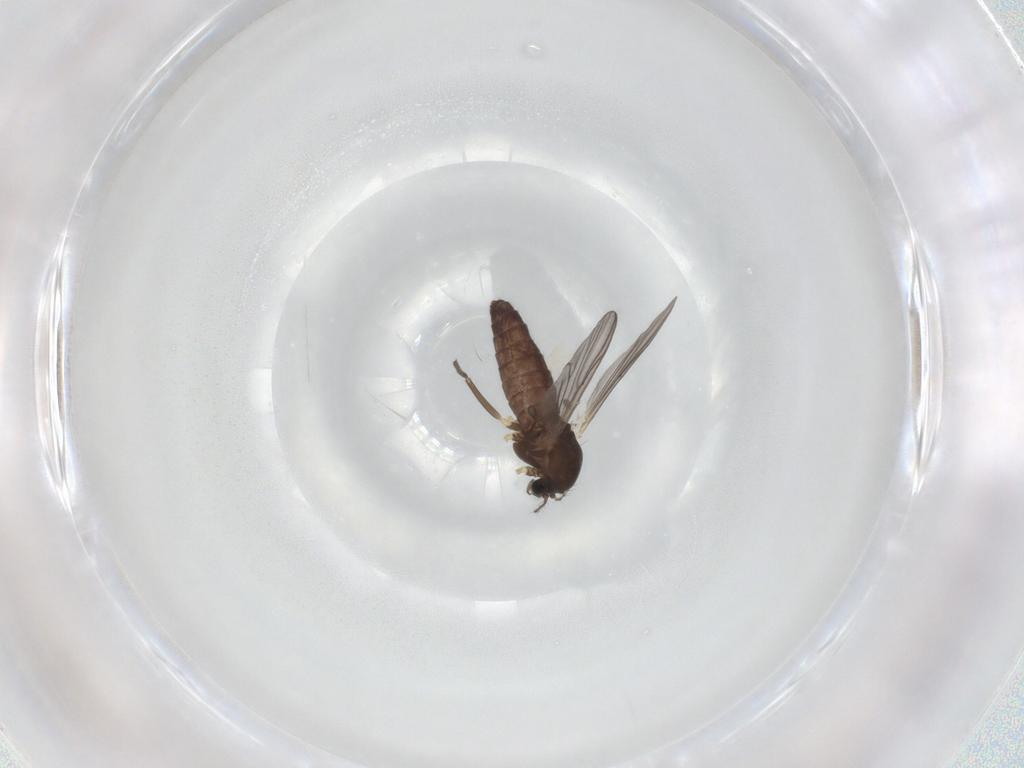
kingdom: Animalia
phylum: Arthropoda
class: Insecta
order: Diptera
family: Chironomidae
